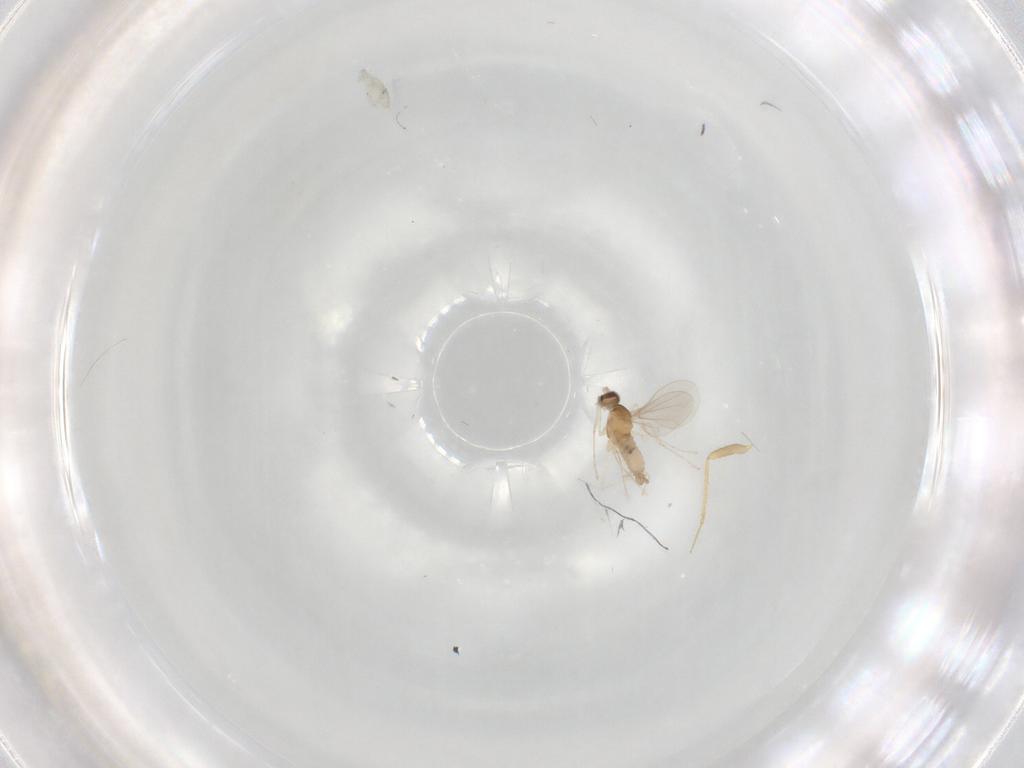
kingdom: Animalia
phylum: Arthropoda
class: Insecta
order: Diptera
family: Cecidomyiidae
